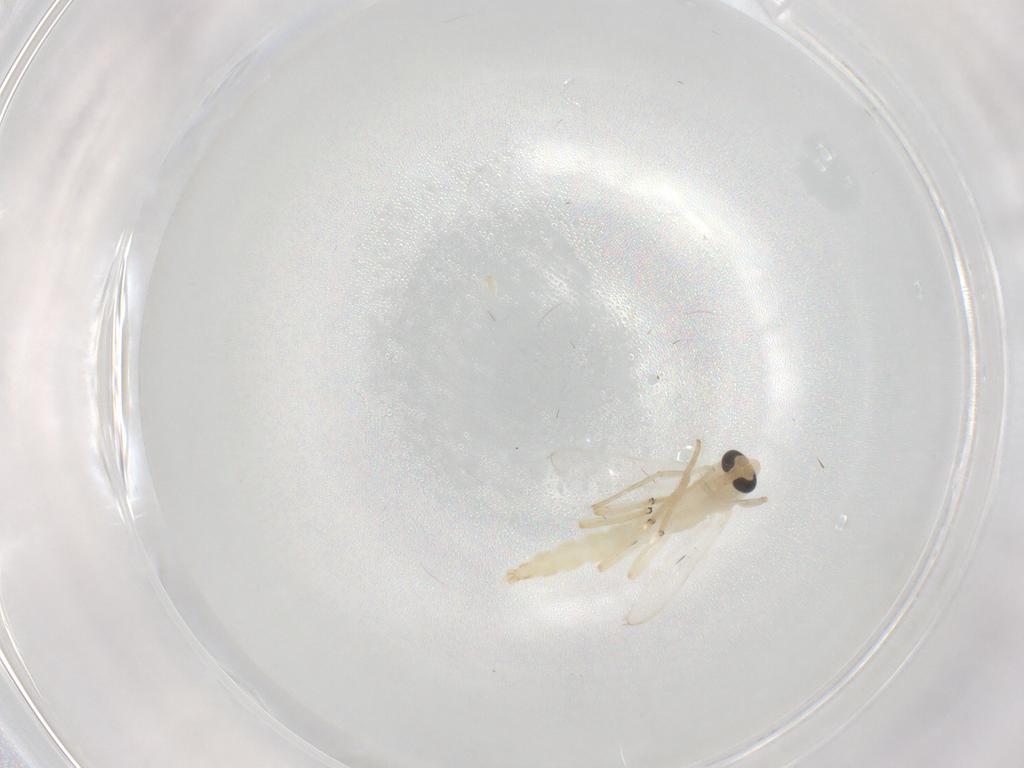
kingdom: Animalia
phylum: Arthropoda
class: Insecta
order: Diptera
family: Chironomidae
